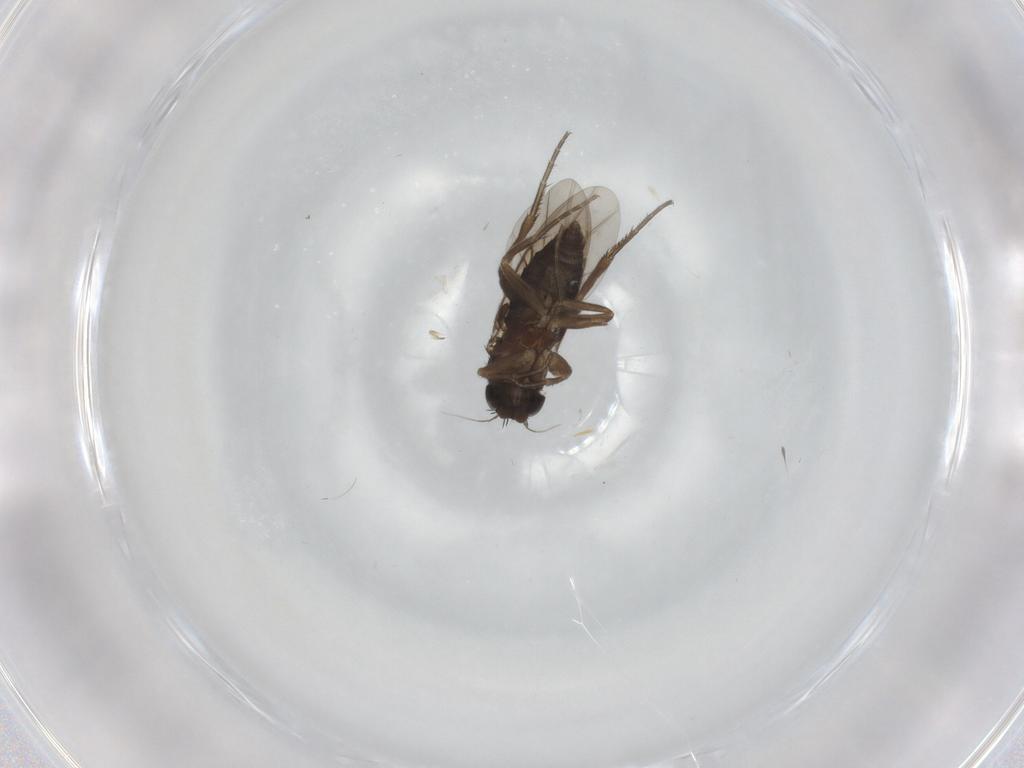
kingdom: Animalia
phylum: Arthropoda
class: Insecta
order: Diptera
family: Phoridae
